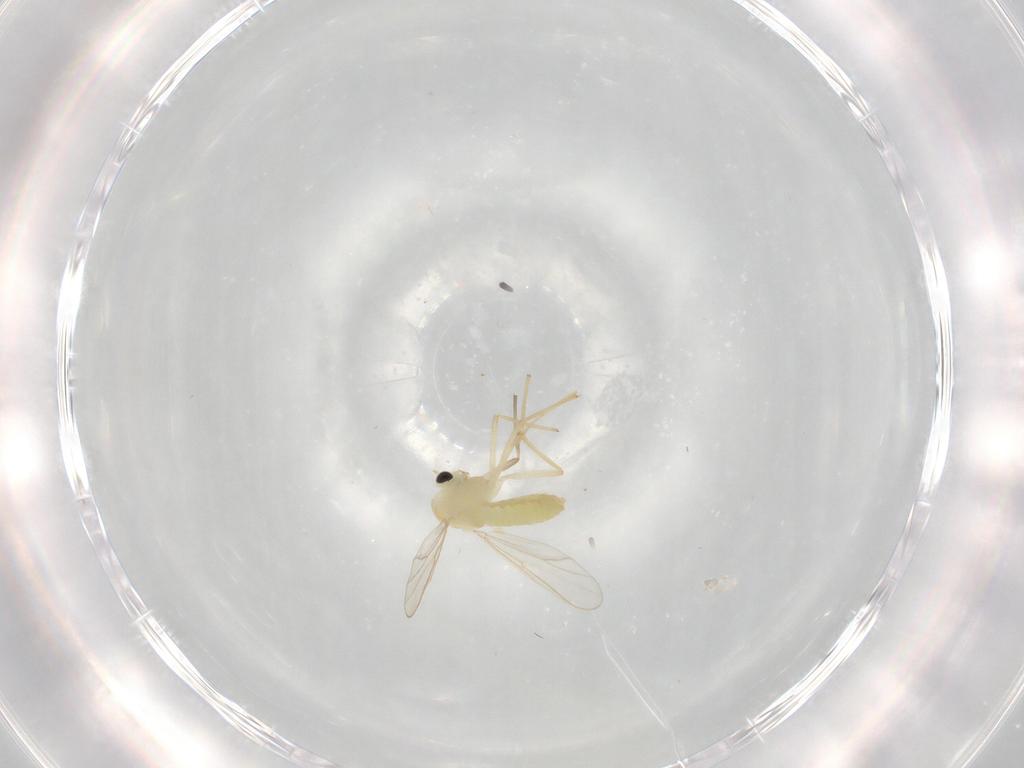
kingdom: Animalia
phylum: Arthropoda
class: Insecta
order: Diptera
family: Chironomidae
